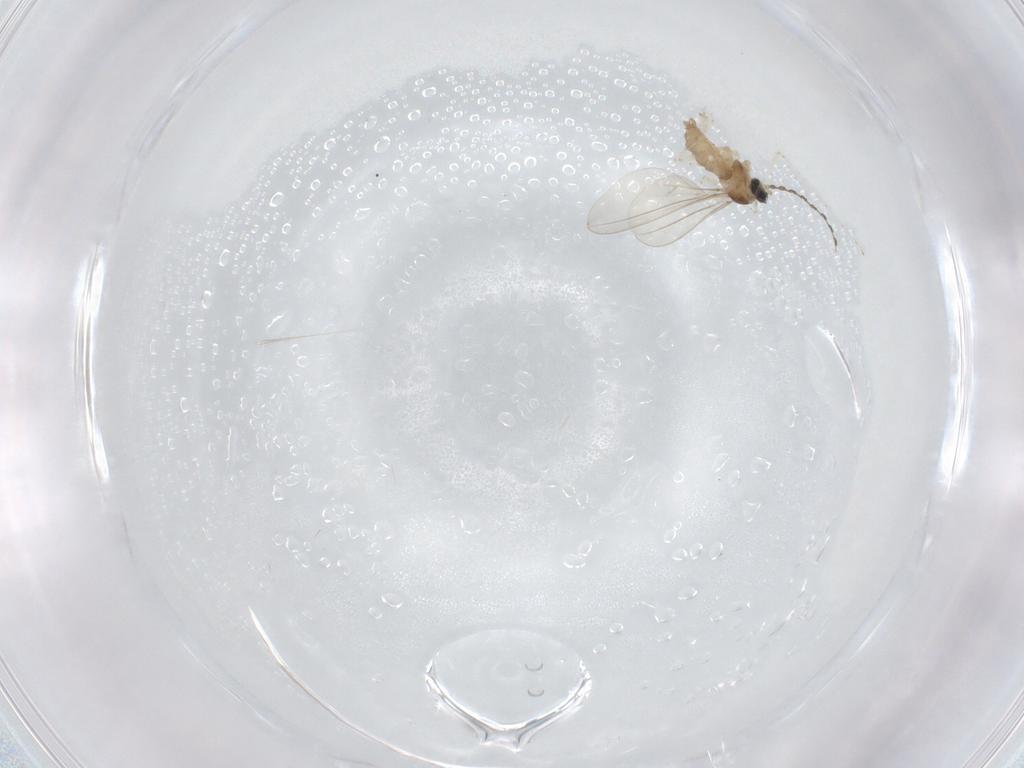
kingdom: Animalia
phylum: Arthropoda
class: Insecta
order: Diptera
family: Cecidomyiidae
